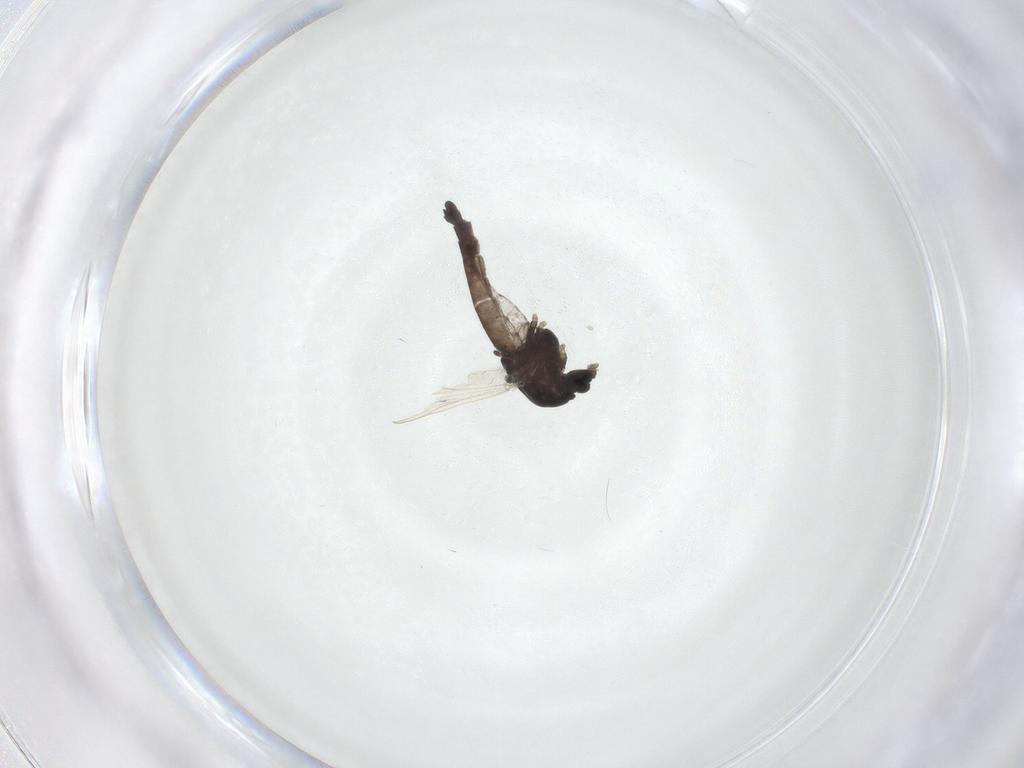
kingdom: Animalia
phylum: Arthropoda
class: Insecta
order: Diptera
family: Chironomidae
